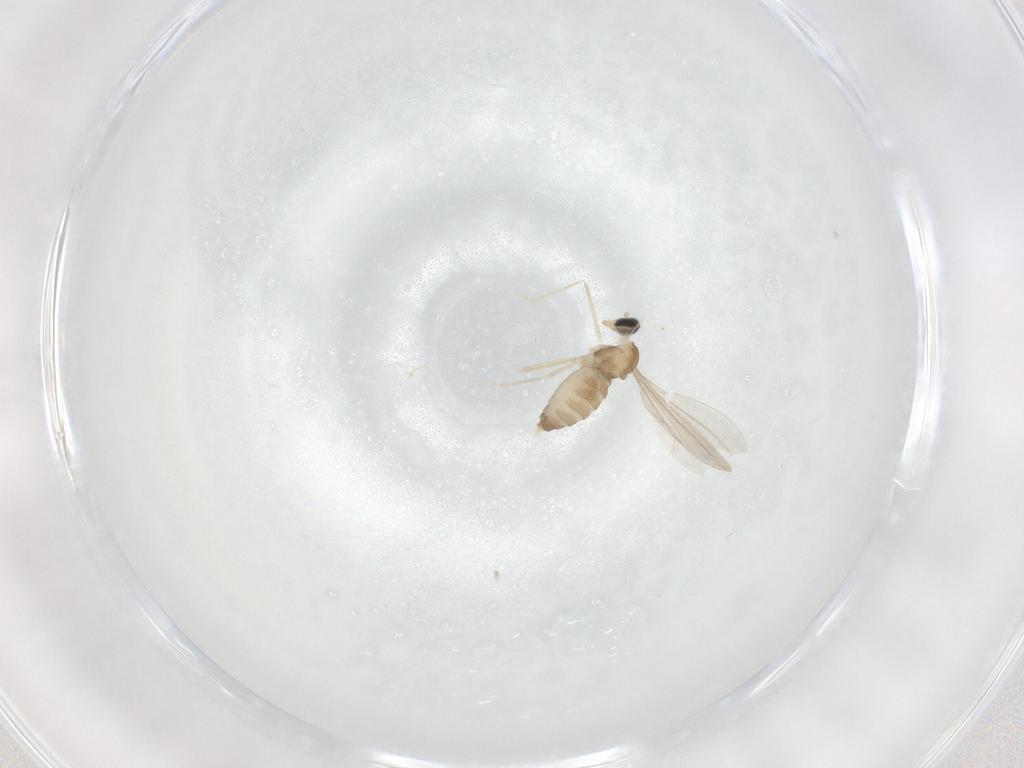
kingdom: Animalia
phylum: Arthropoda
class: Insecta
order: Diptera
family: Cecidomyiidae
